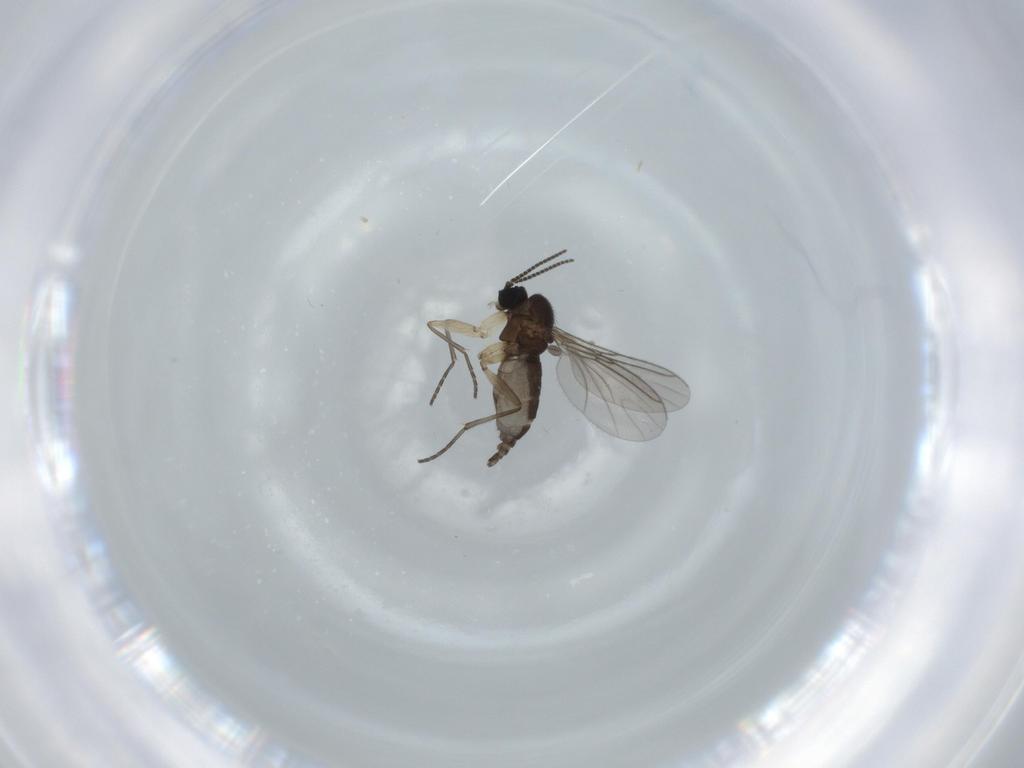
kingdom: Animalia
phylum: Arthropoda
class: Insecta
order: Diptera
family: Sciaridae
